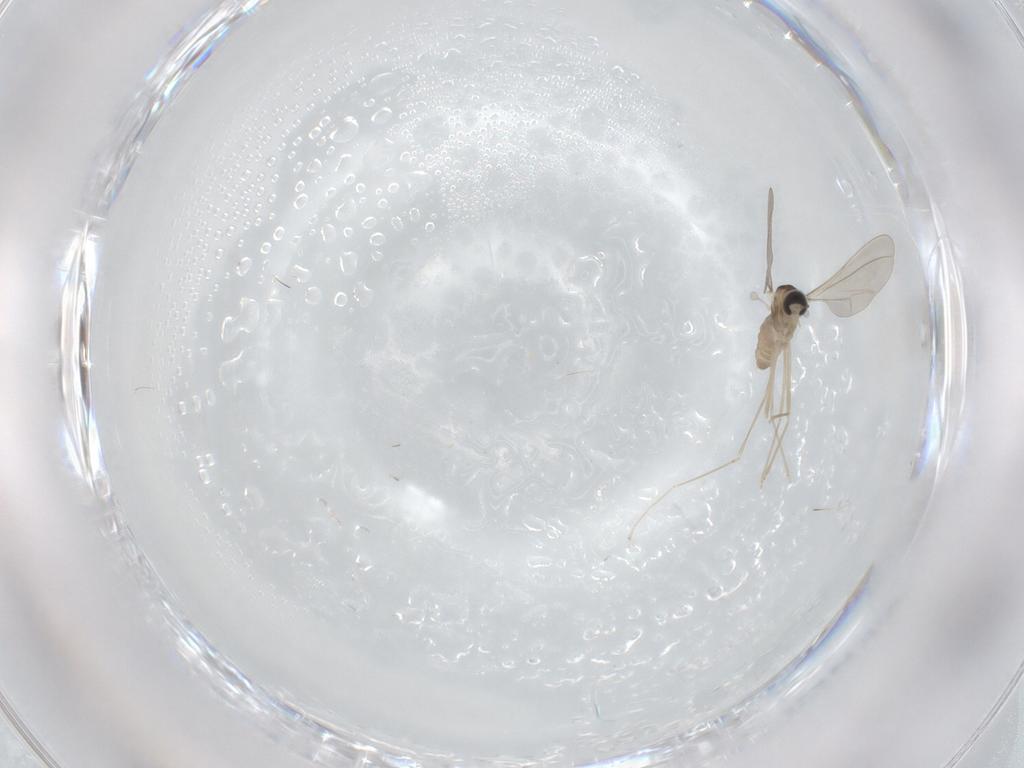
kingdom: Animalia
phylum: Arthropoda
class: Insecta
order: Diptera
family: Cecidomyiidae
